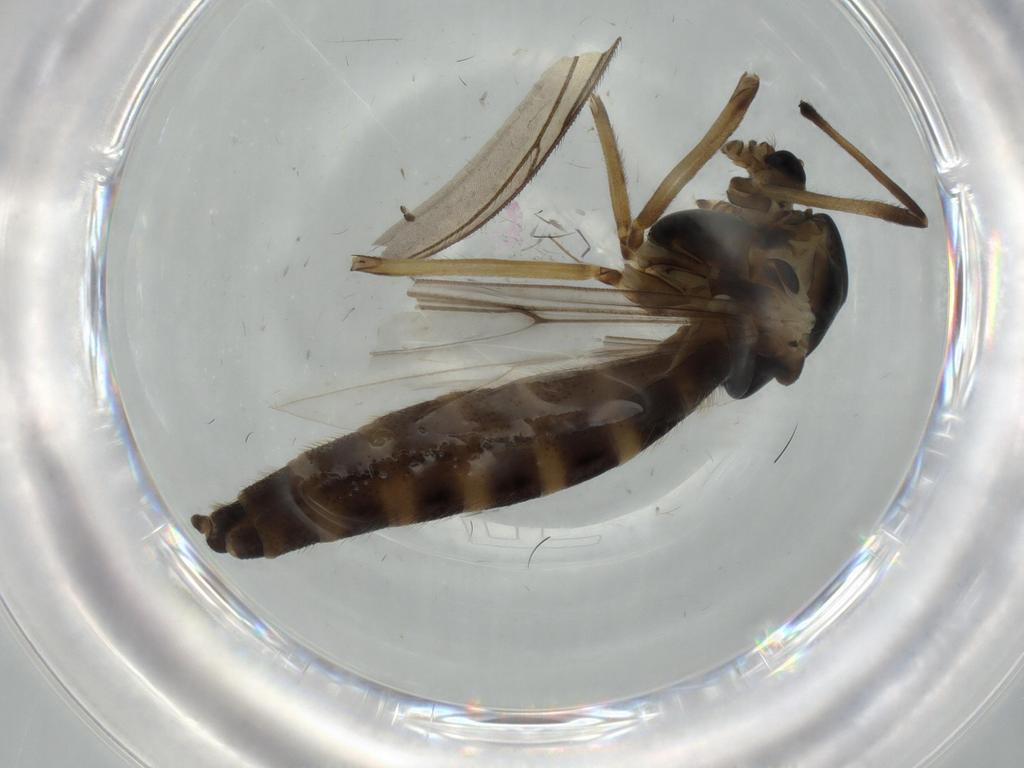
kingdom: Animalia
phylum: Arthropoda
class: Insecta
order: Diptera
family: Chironomidae
